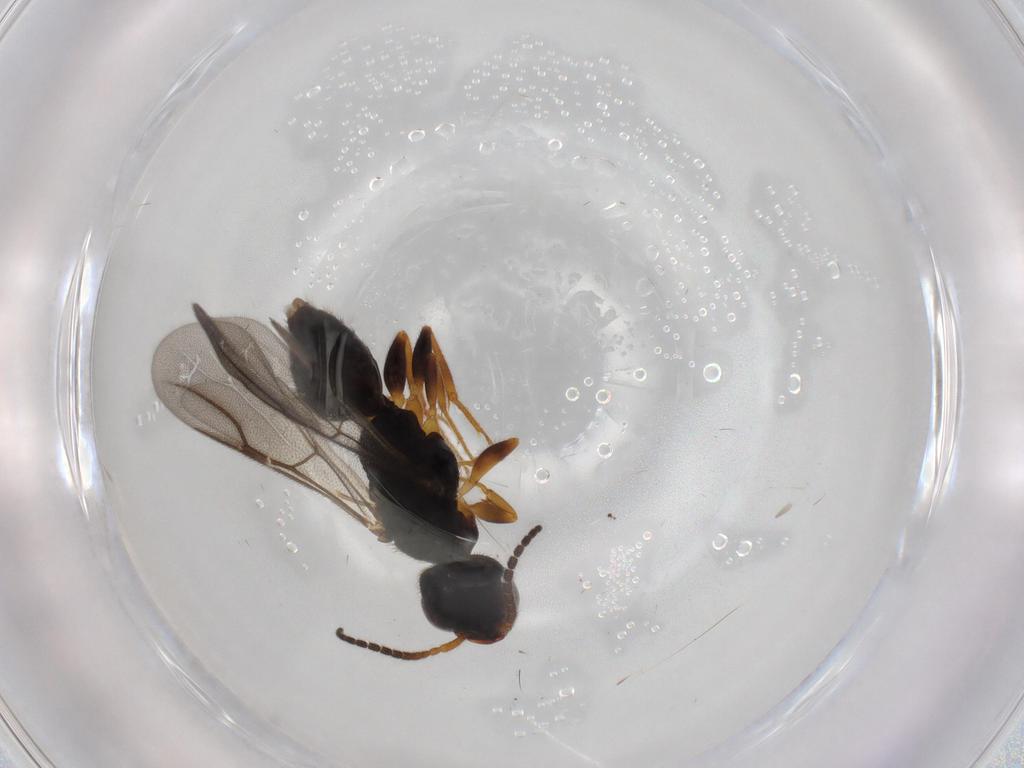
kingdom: Animalia
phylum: Arthropoda
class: Insecta
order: Hymenoptera
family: Bethylidae
